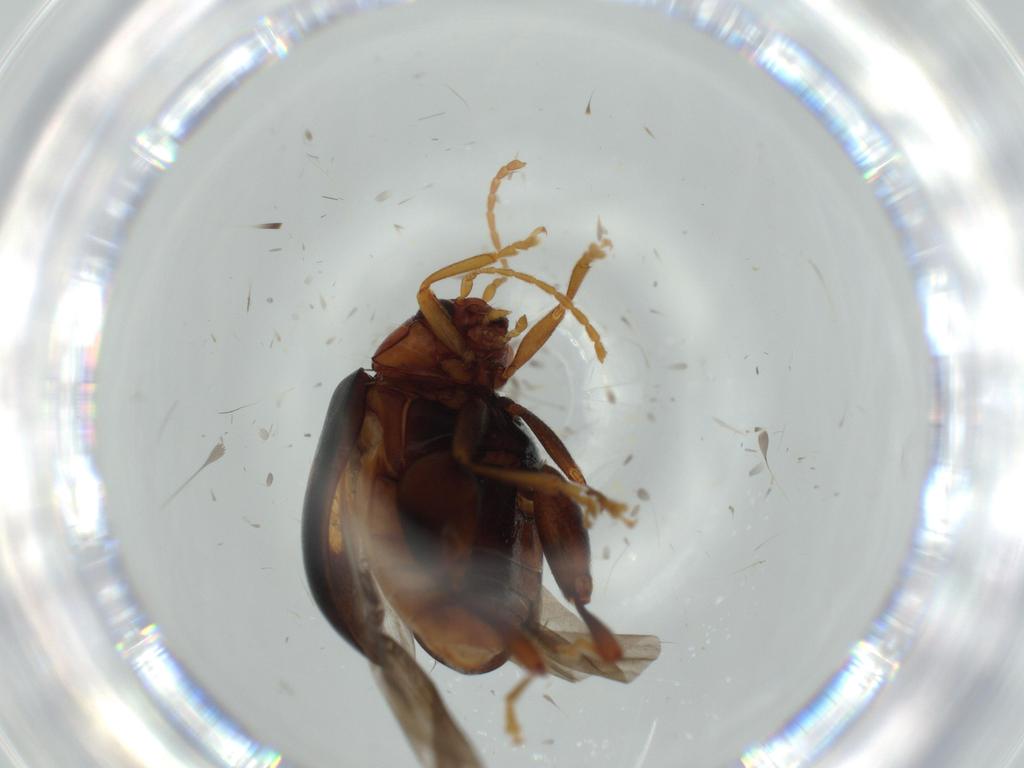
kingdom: Animalia
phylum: Arthropoda
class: Insecta
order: Coleoptera
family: Chrysomelidae
